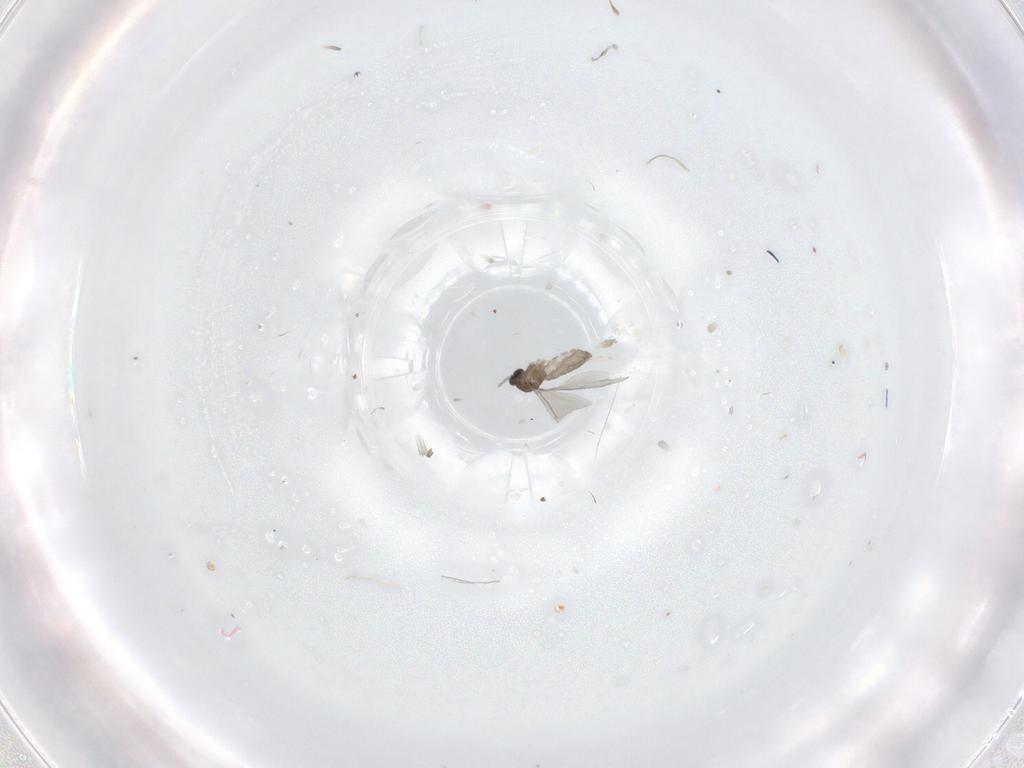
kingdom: Animalia
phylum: Arthropoda
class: Insecta
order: Diptera
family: Cecidomyiidae
